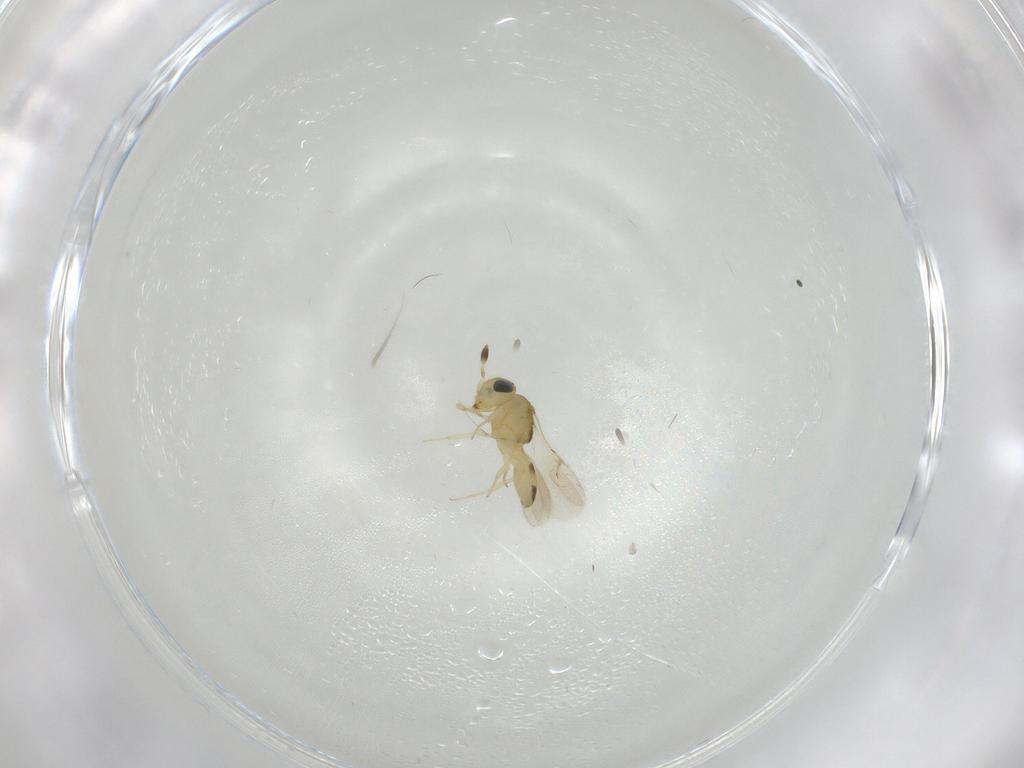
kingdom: Animalia
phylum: Arthropoda
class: Insecta
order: Hymenoptera
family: Scelionidae
